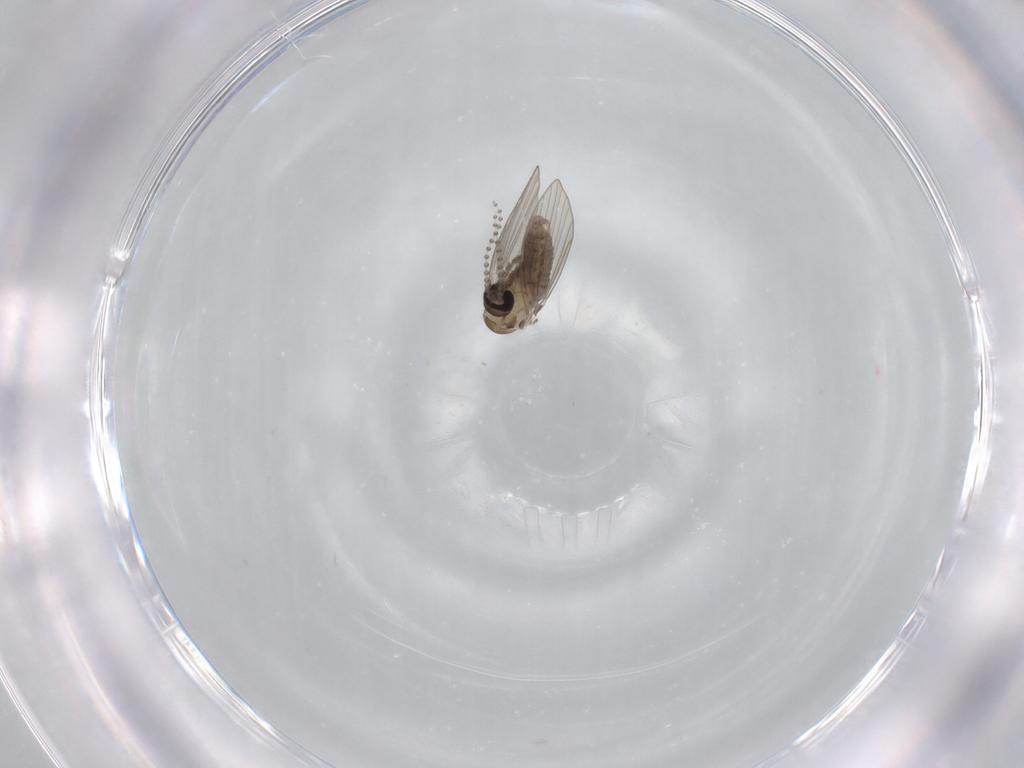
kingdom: Animalia
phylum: Arthropoda
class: Insecta
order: Diptera
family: Psychodidae
